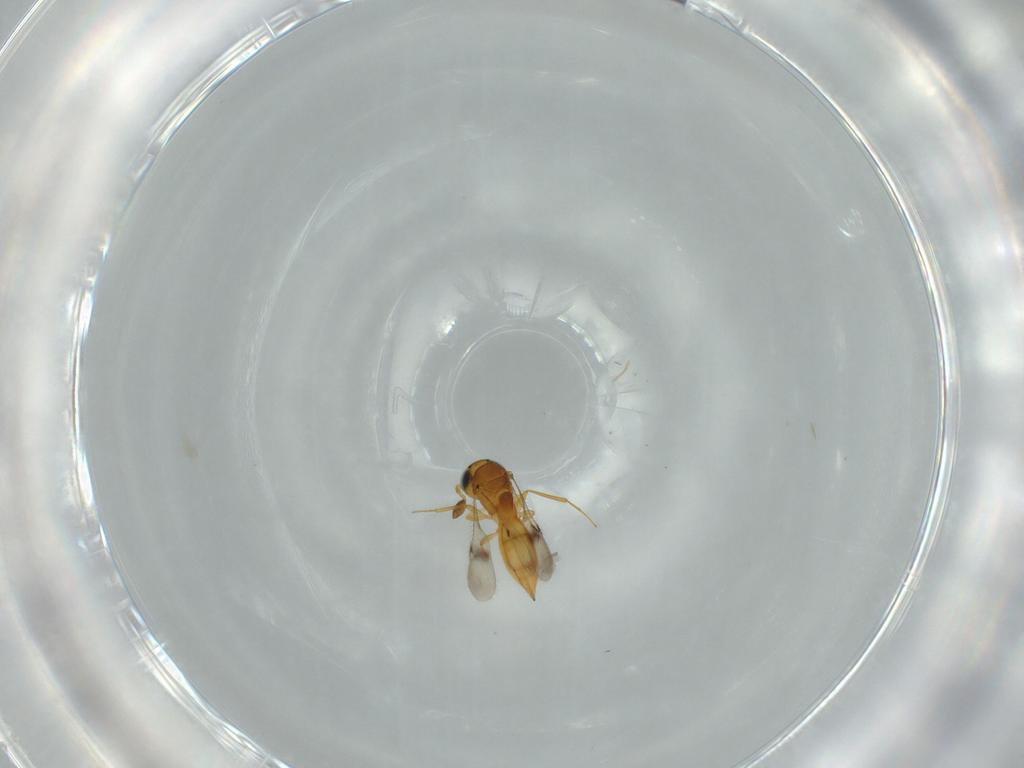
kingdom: Animalia
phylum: Arthropoda
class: Insecta
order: Hymenoptera
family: Scelionidae
